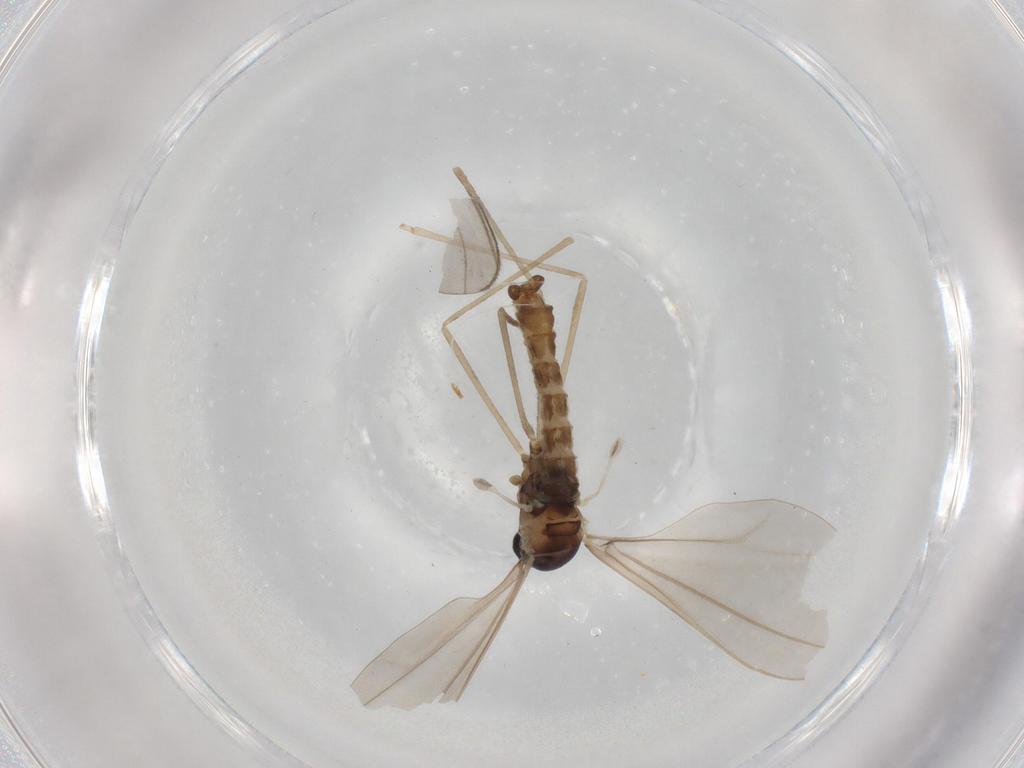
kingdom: Animalia
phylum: Arthropoda
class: Insecta
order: Diptera
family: Cecidomyiidae
